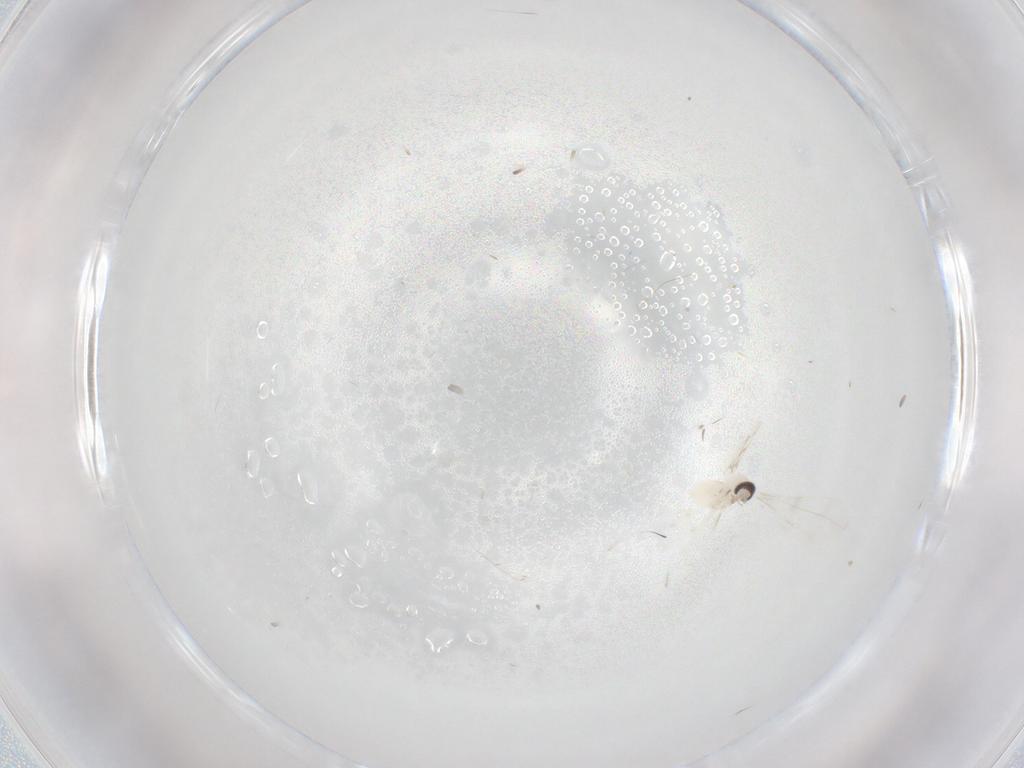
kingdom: Animalia
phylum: Arthropoda
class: Insecta
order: Diptera
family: Cecidomyiidae
